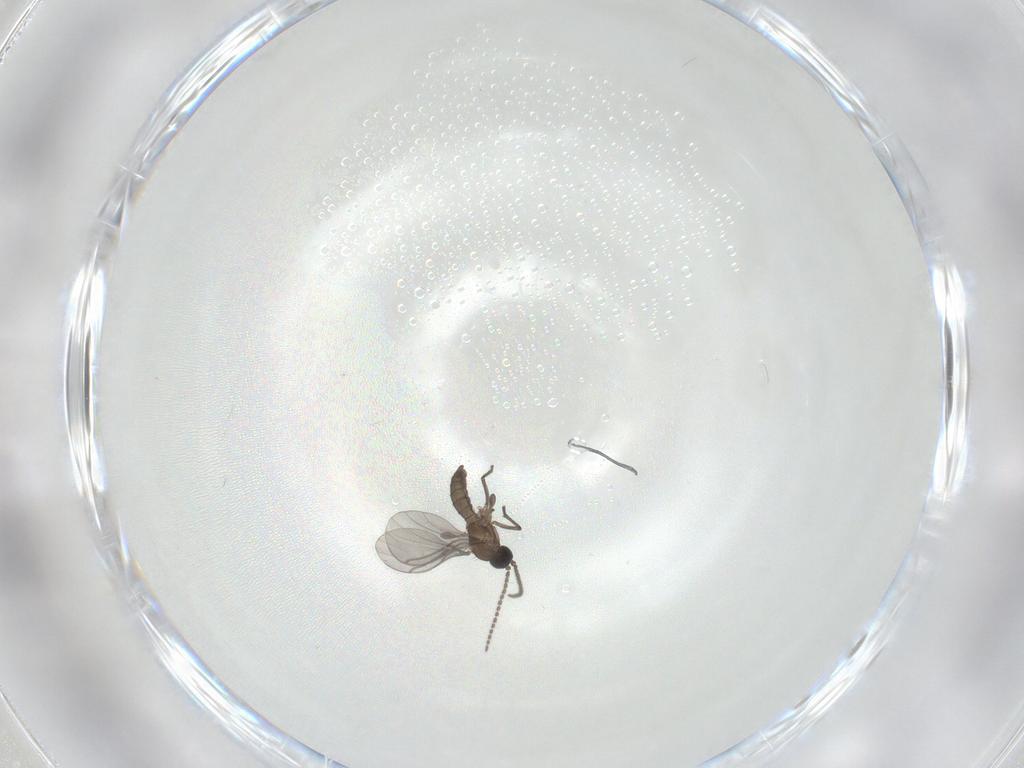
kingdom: Animalia
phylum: Arthropoda
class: Insecta
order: Diptera
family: Sciaridae
